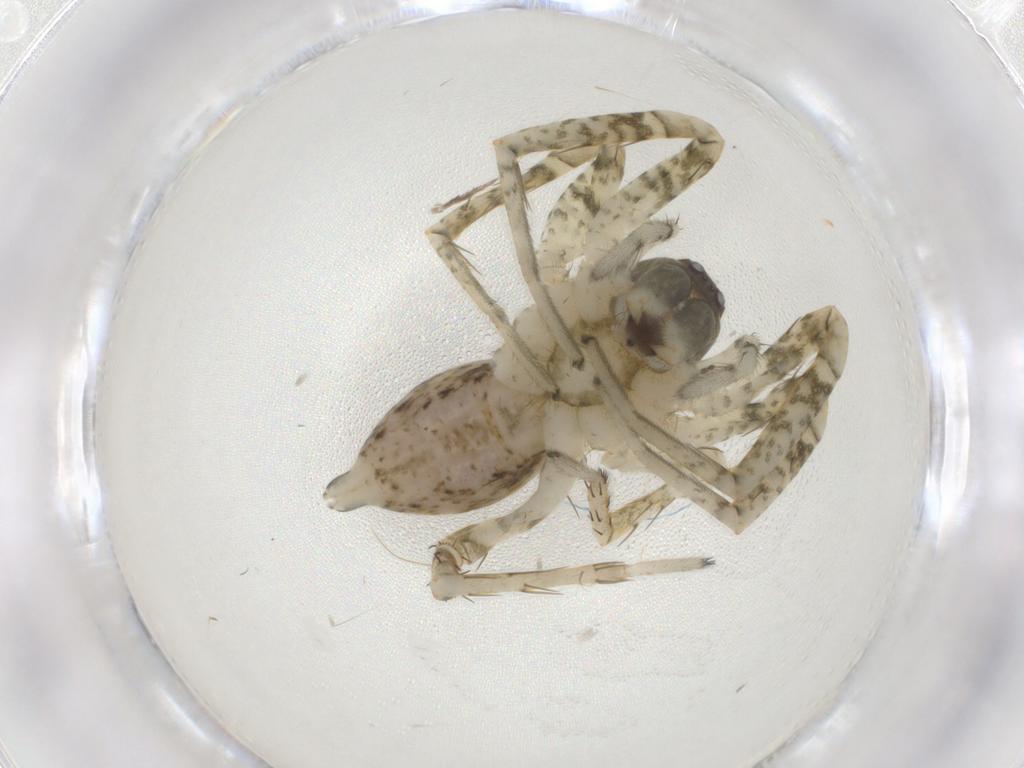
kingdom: Animalia
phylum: Arthropoda
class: Arachnida
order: Araneae
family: Anyphaenidae
